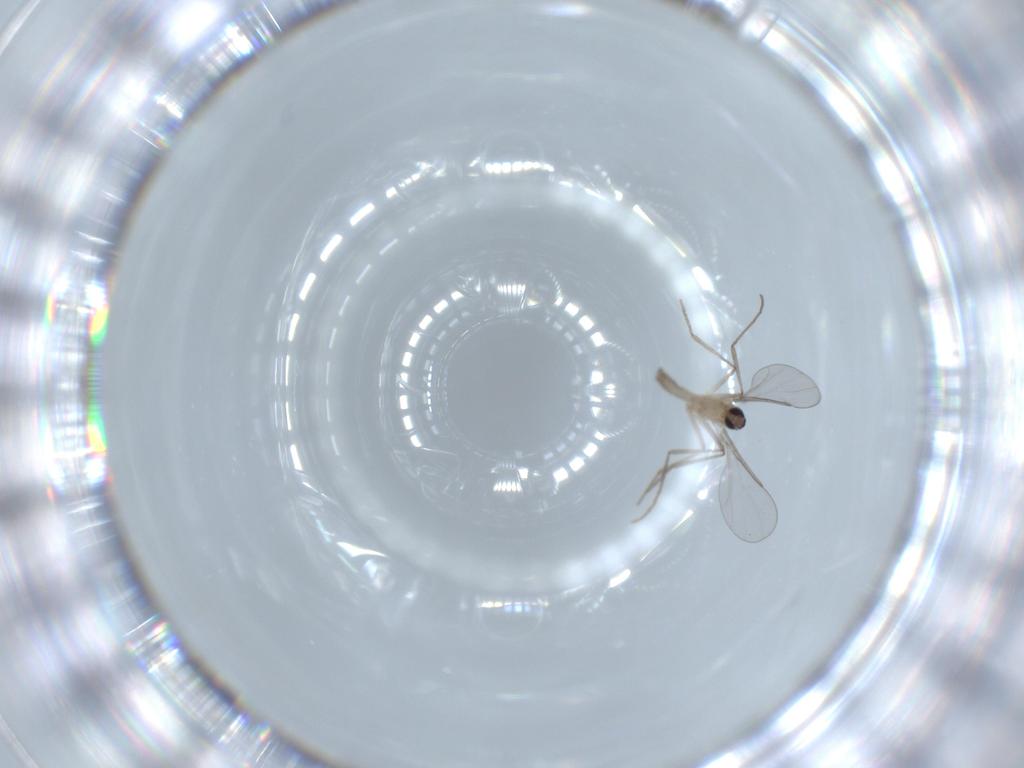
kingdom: Animalia
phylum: Arthropoda
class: Insecta
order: Diptera
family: Cecidomyiidae
